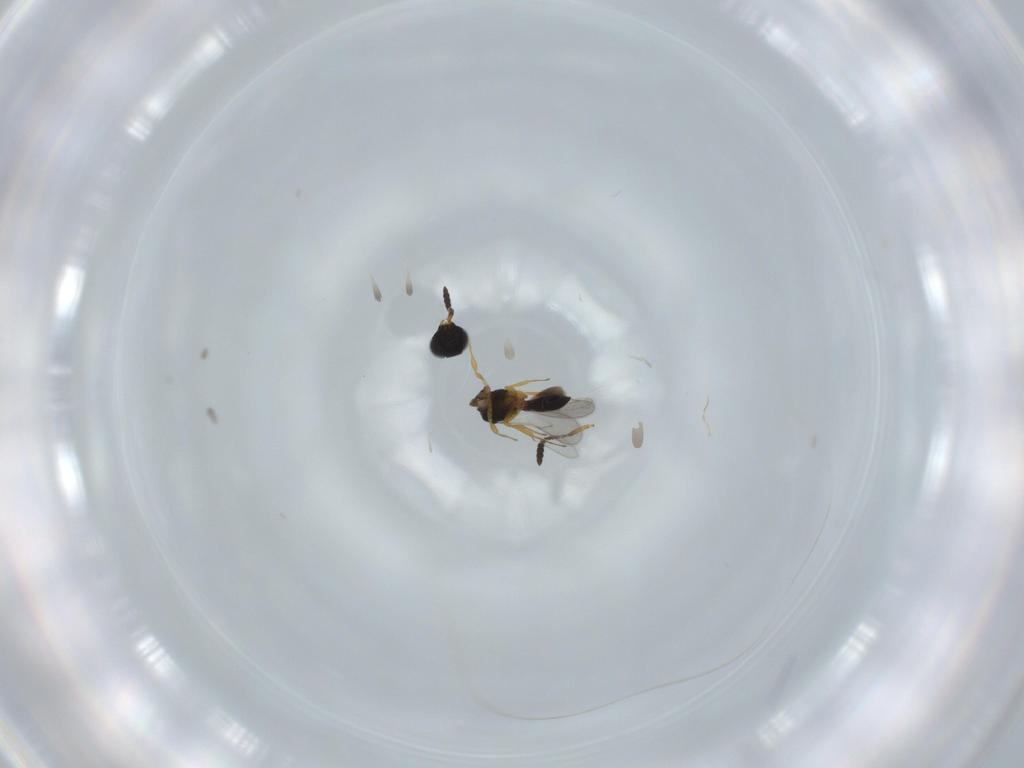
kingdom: Animalia
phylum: Arthropoda
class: Insecta
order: Hymenoptera
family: Scelionidae
